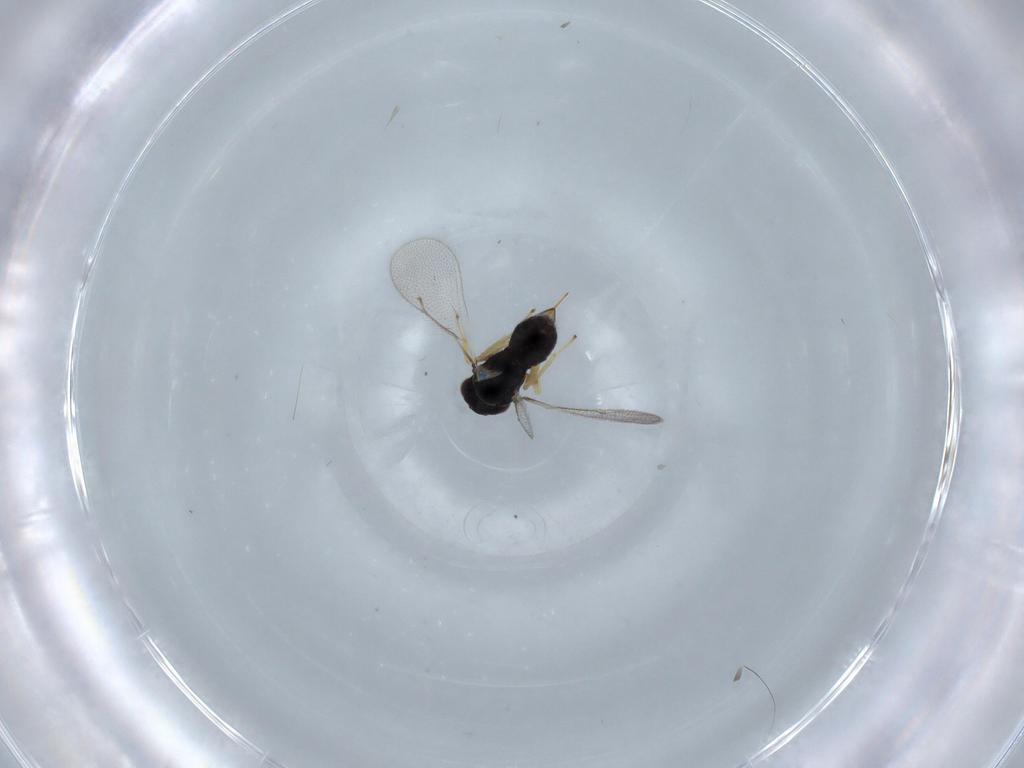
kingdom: Animalia
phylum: Arthropoda
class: Insecta
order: Hymenoptera
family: Eulophidae
